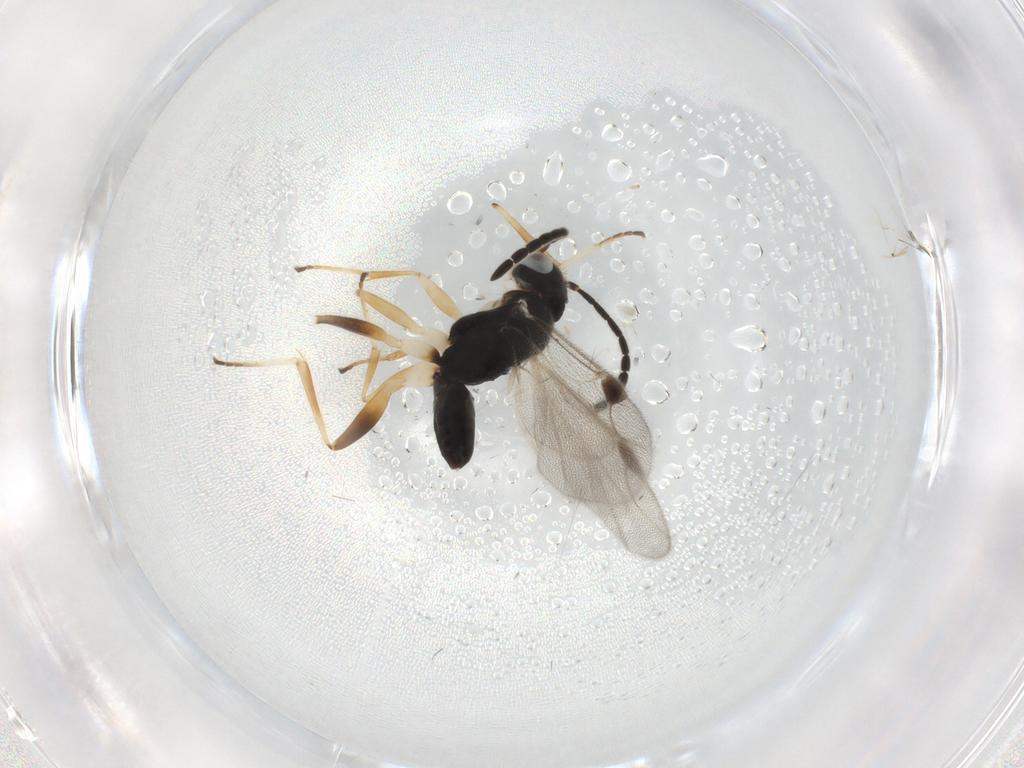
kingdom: Animalia
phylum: Arthropoda
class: Insecta
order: Hymenoptera
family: Dryinidae
